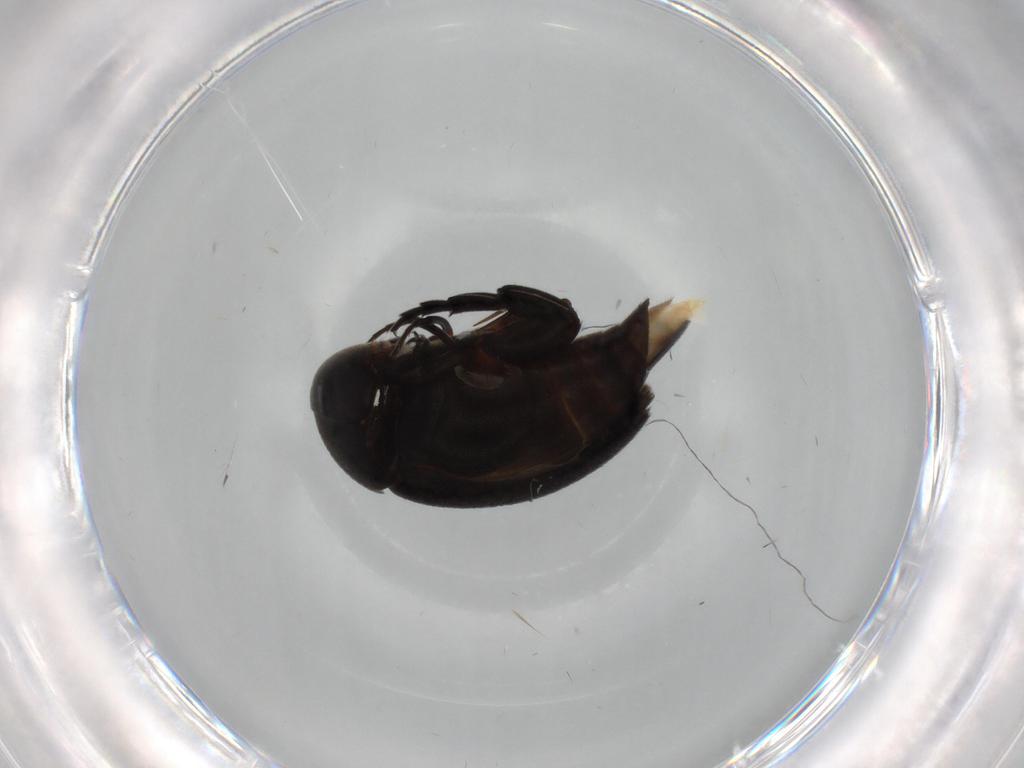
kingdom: Animalia
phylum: Arthropoda
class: Insecta
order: Coleoptera
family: Mordellidae
